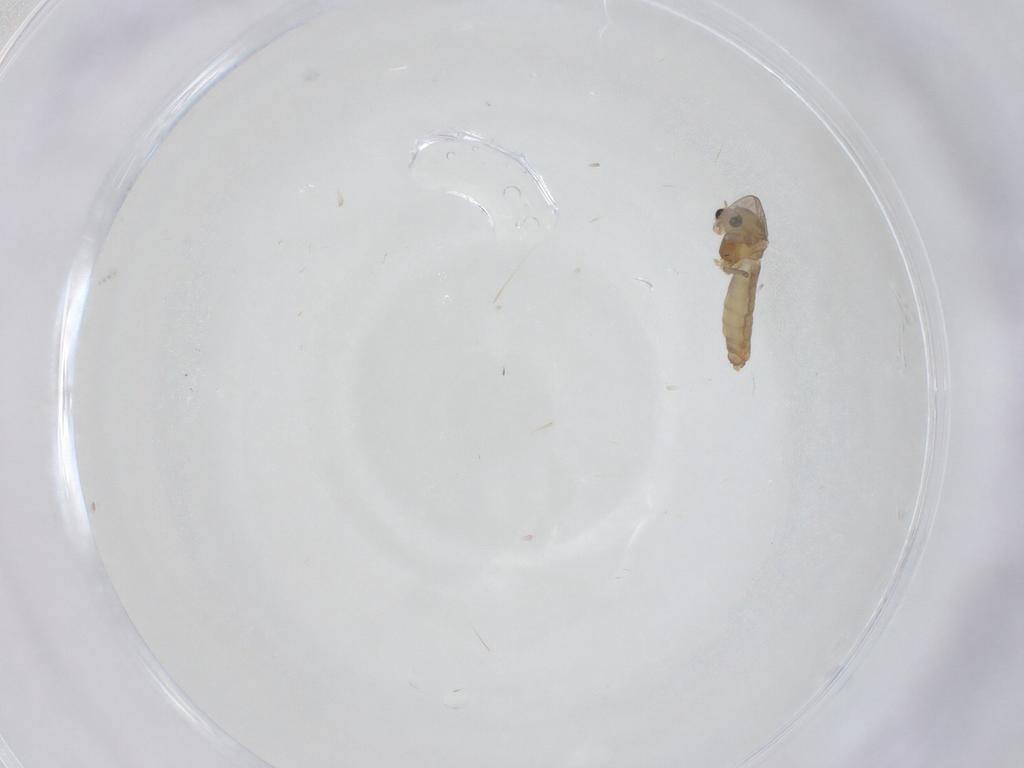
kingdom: Animalia
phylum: Arthropoda
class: Insecta
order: Diptera
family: Chironomidae
